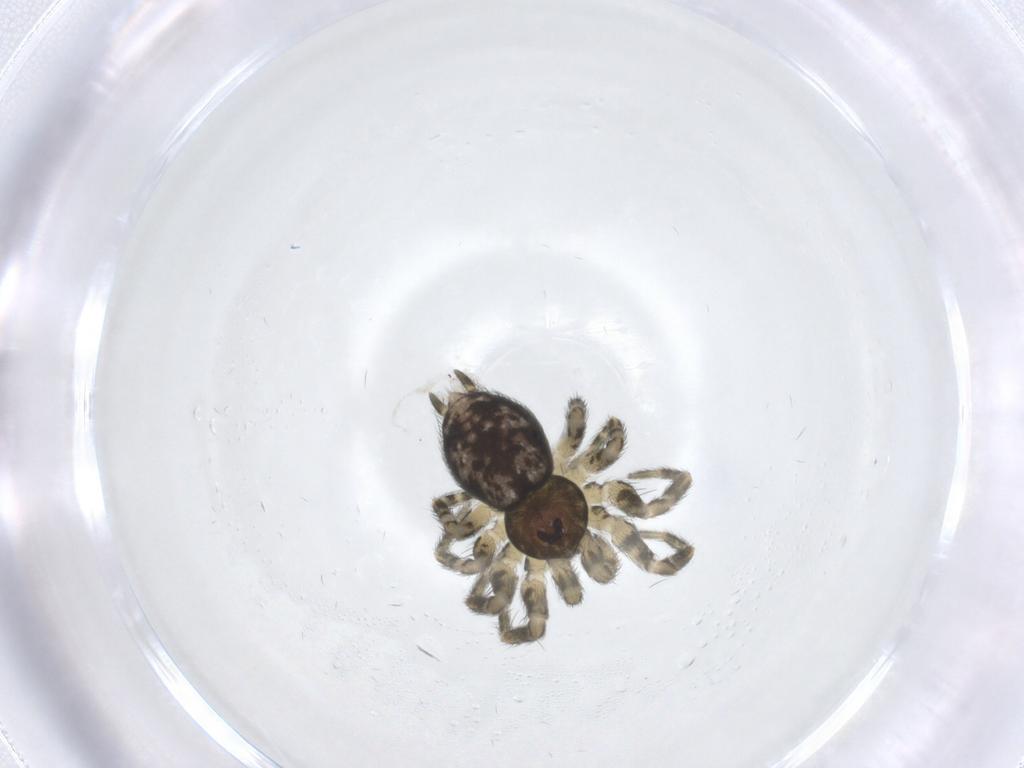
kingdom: Animalia
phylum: Arthropoda
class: Arachnida
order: Araneae
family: Oecobiidae
